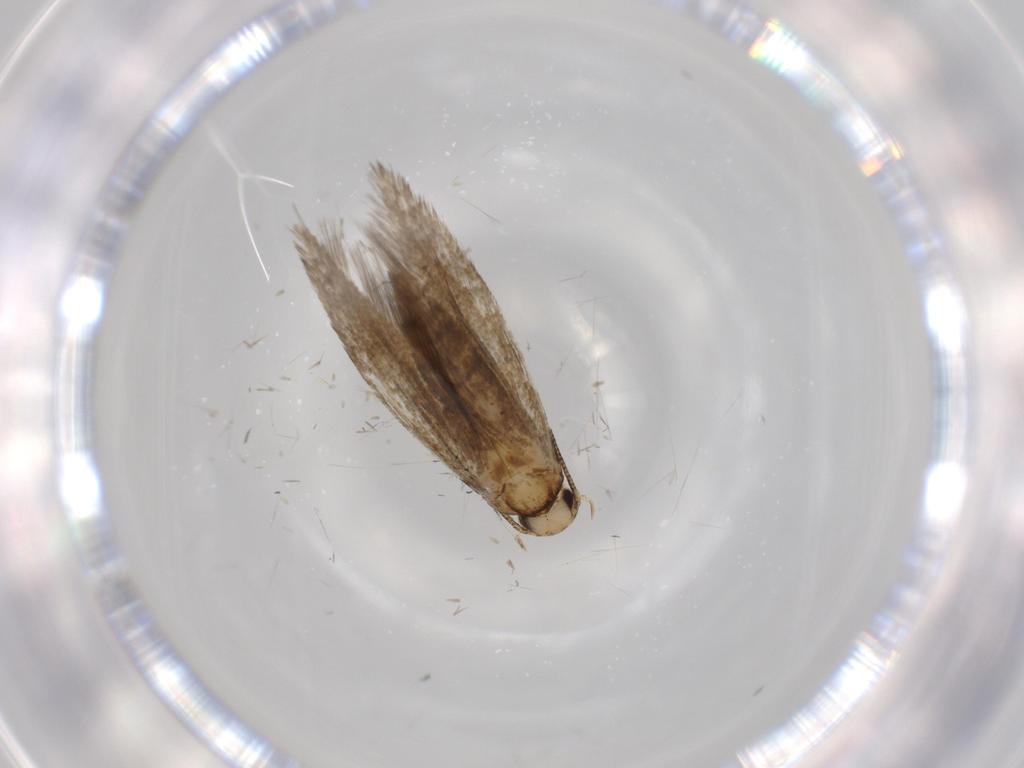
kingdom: Animalia
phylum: Arthropoda
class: Insecta
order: Lepidoptera
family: Tineidae
